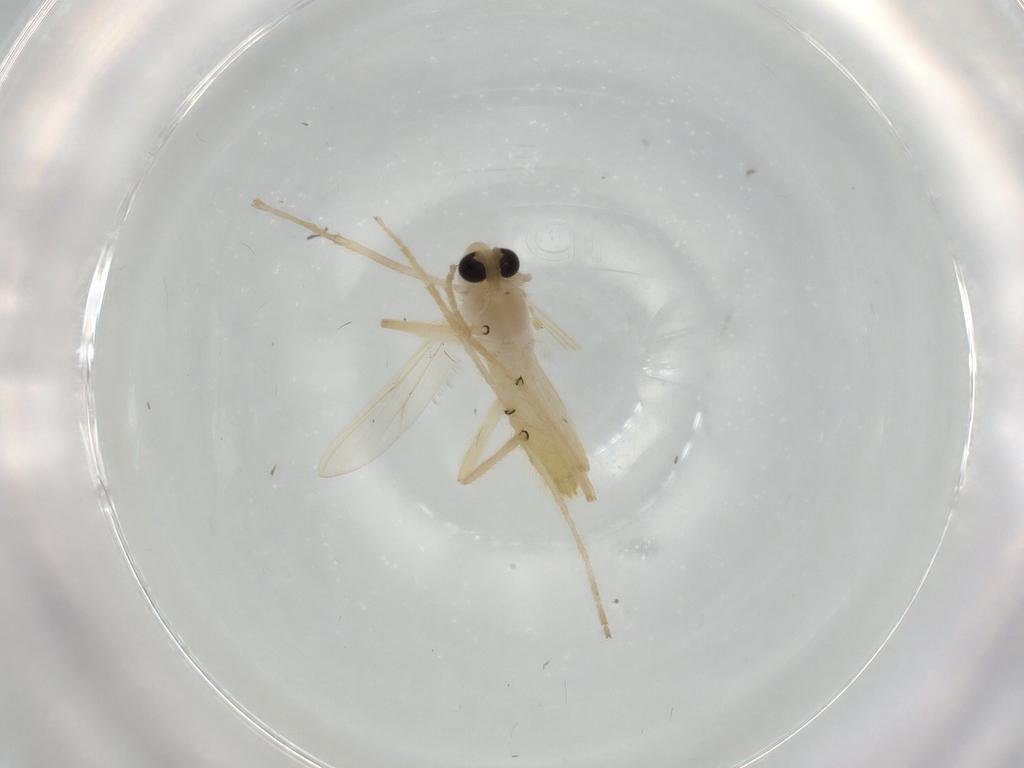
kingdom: Animalia
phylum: Arthropoda
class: Insecta
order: Diptera
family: Chironomidae
